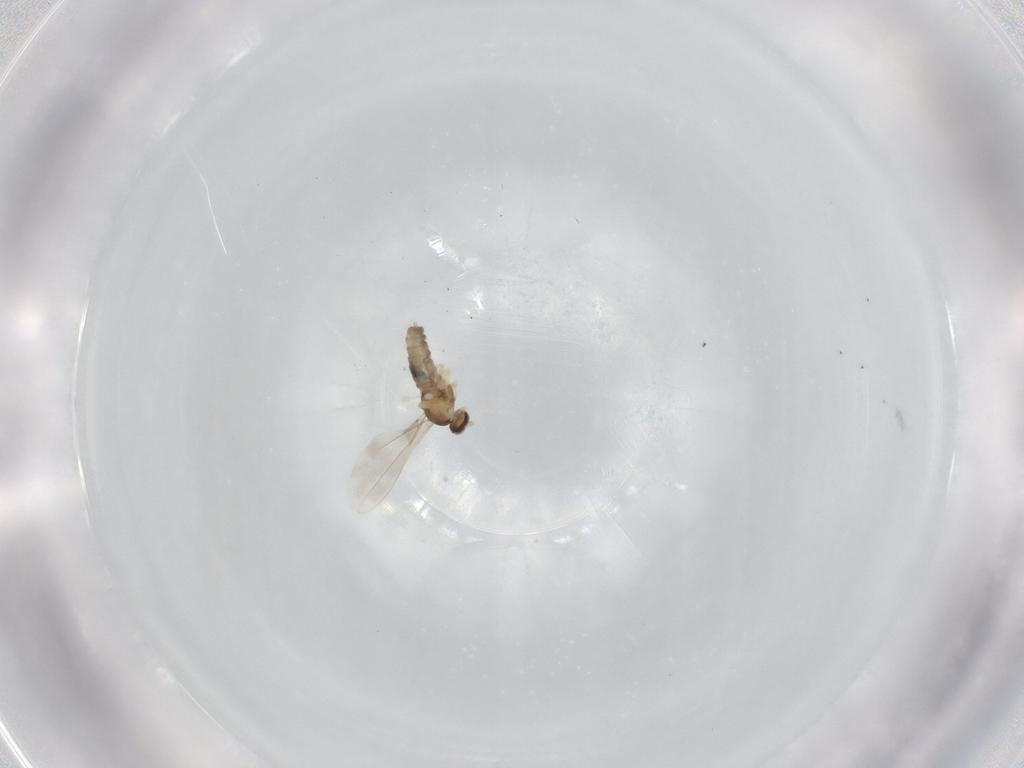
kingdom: Animalia
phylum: Arthropoda
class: Insecta
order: Diptera
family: Cecidomyiidae
